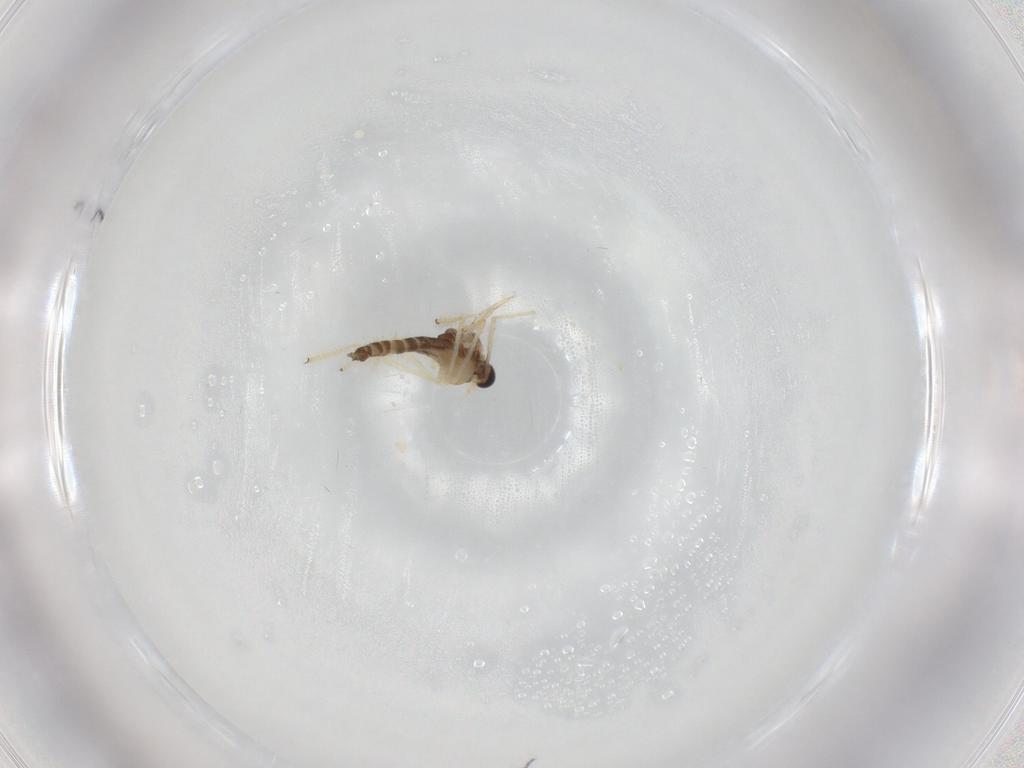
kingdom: Animalia
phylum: Arthropoda
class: Insecta
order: Diptera
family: Chironomidae
